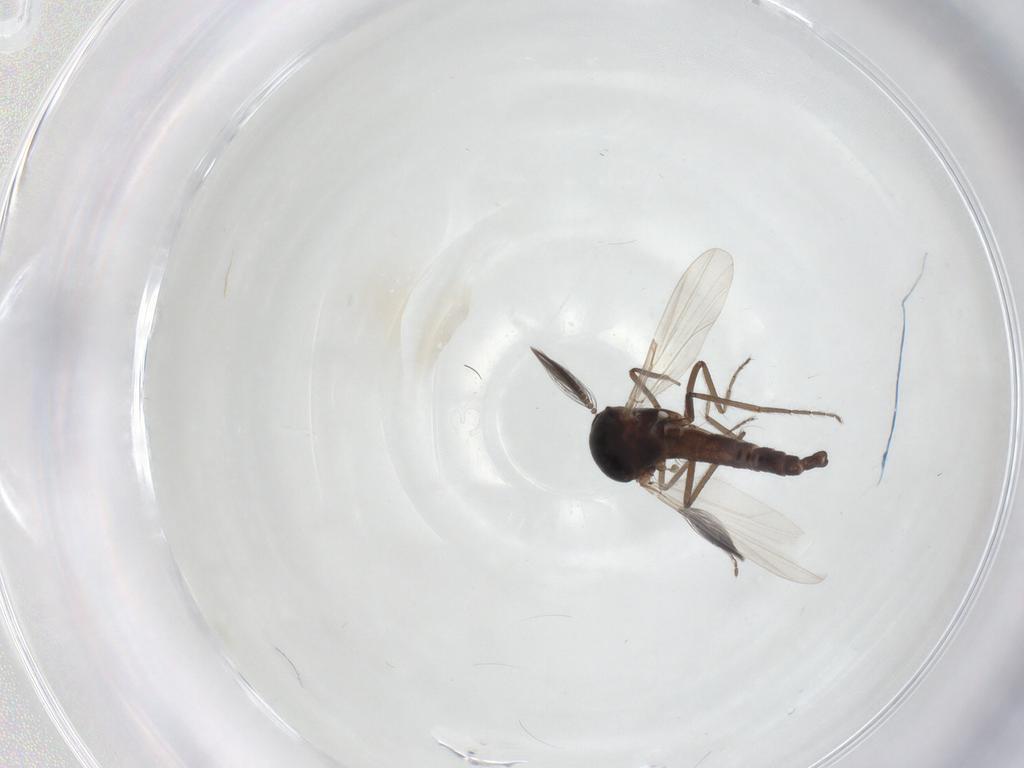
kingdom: Animalia
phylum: Arthropoda
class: Insecta
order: Diptera
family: Ceratopogonidae
